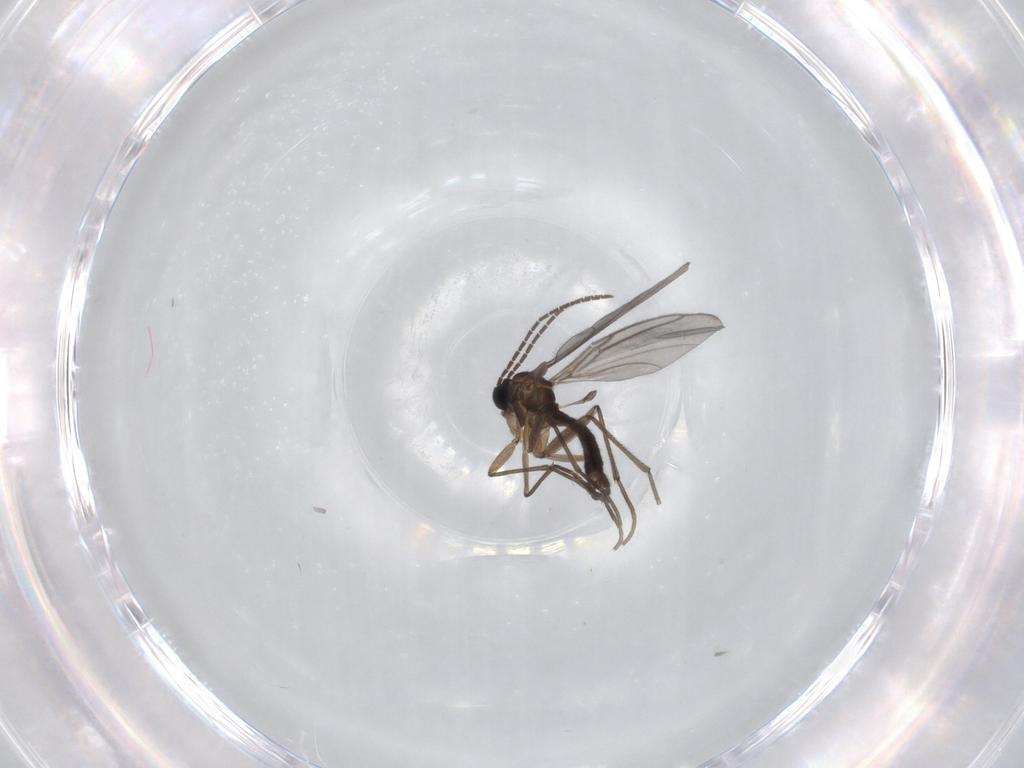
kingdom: Animalia
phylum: Arthropoda
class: Insecta
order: Diptera
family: Sciaridae
